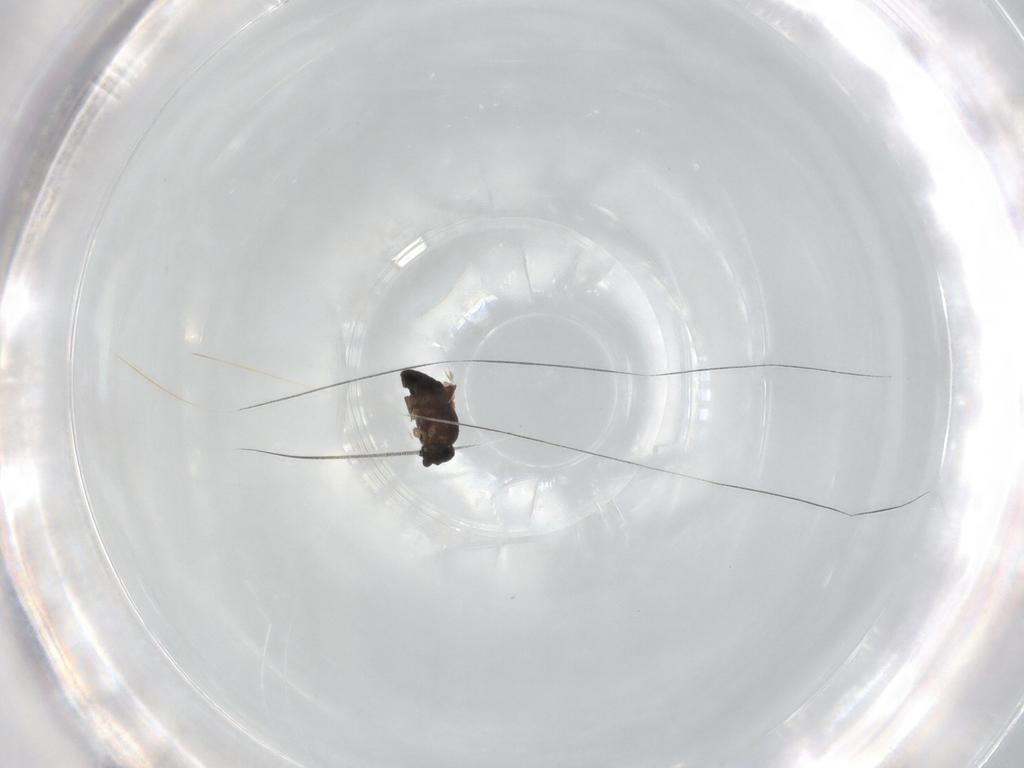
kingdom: Animalia
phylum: Arthropoda
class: Insecta
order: Diptera
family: Phoridae
